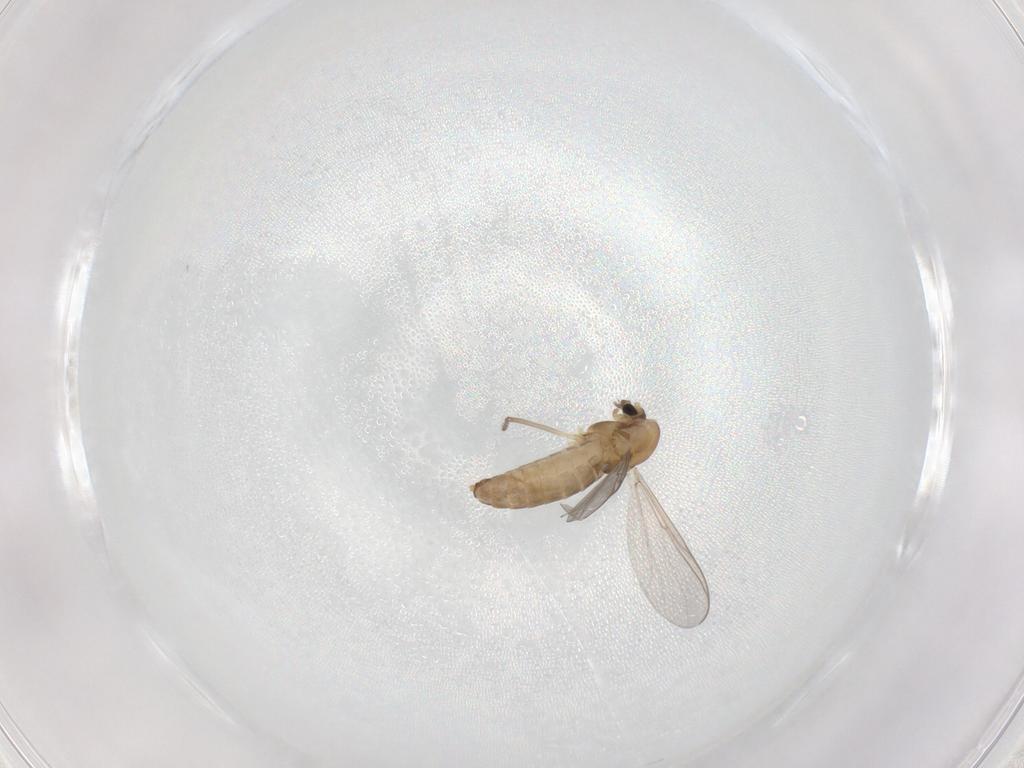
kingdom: Animalia
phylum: Arthropoda
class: Insecta
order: Diptera
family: Chironomidae
